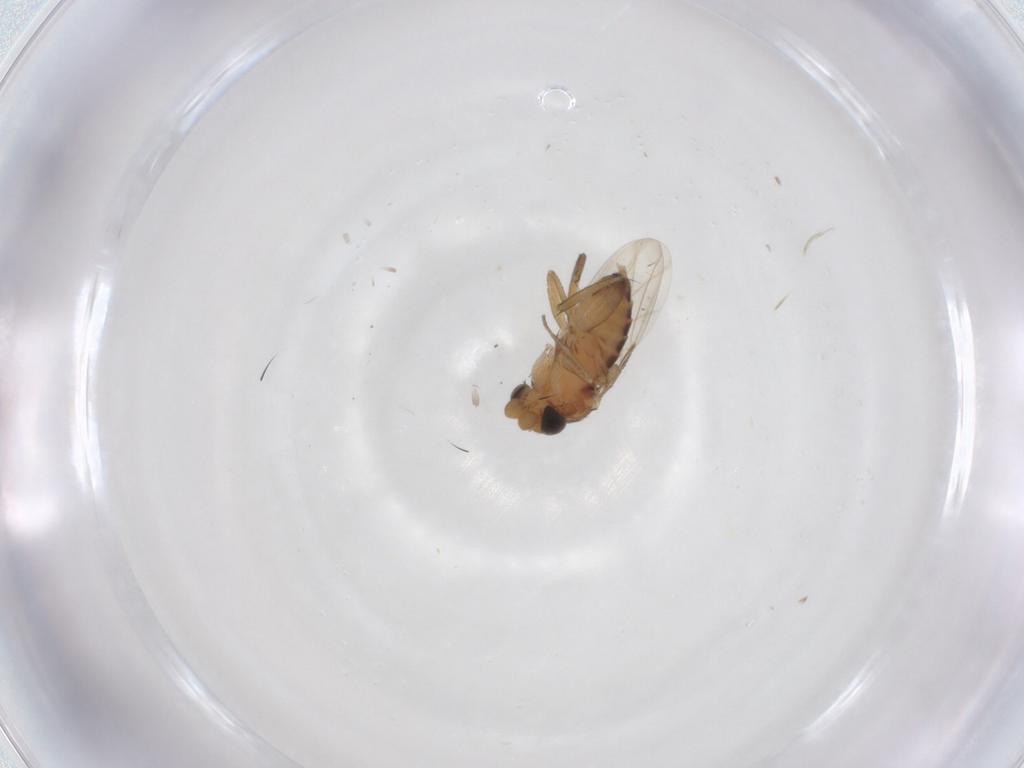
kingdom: Animalia
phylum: Arthropoda
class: Insecta
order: Diptera
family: Phoridae
